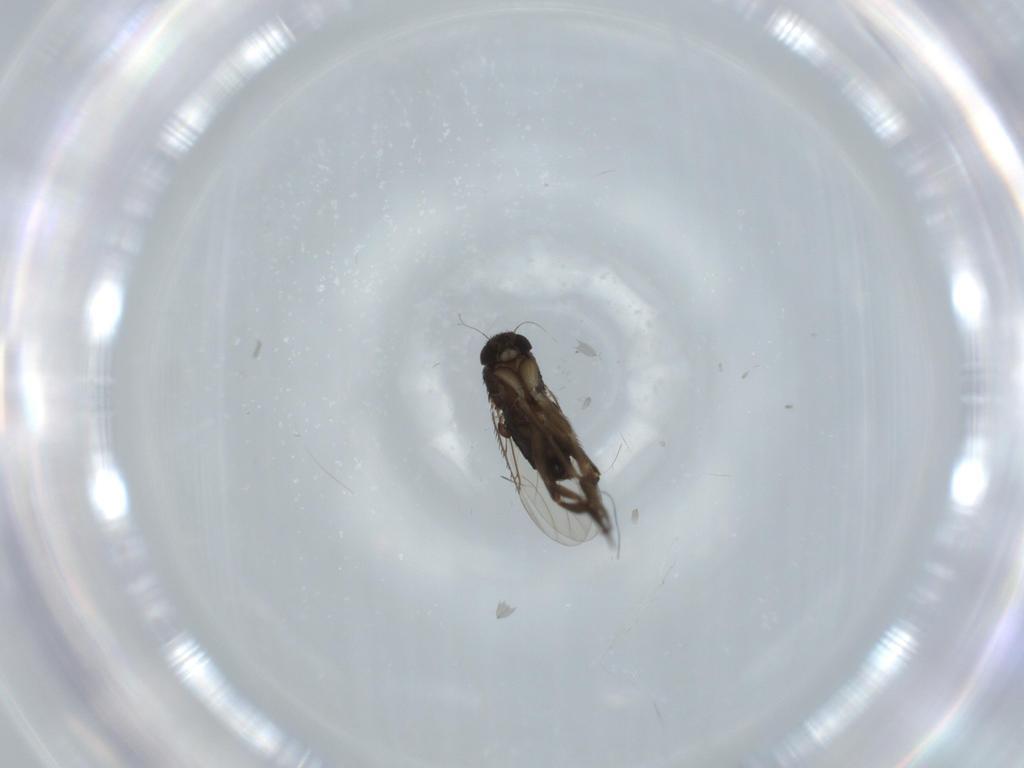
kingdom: Animalia
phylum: Arthropoda
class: Insecta
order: Diptera
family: Phoridae
